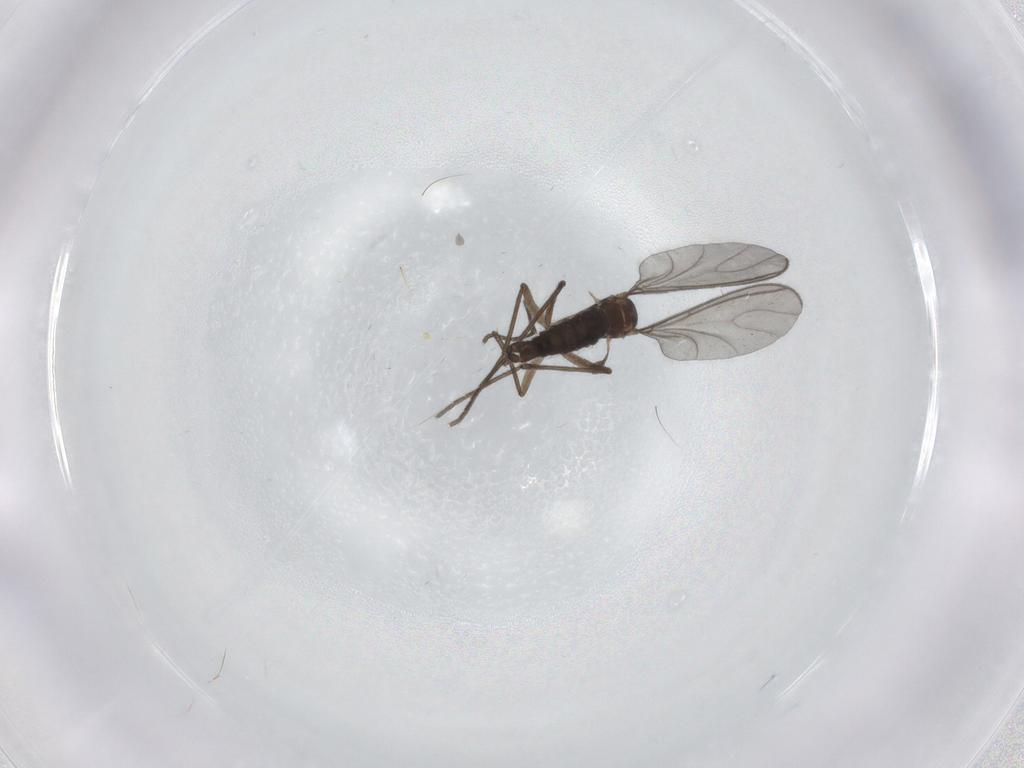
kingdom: Animalia
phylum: Arthropoda
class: Insecta
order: Diptera
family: Sciaridae
